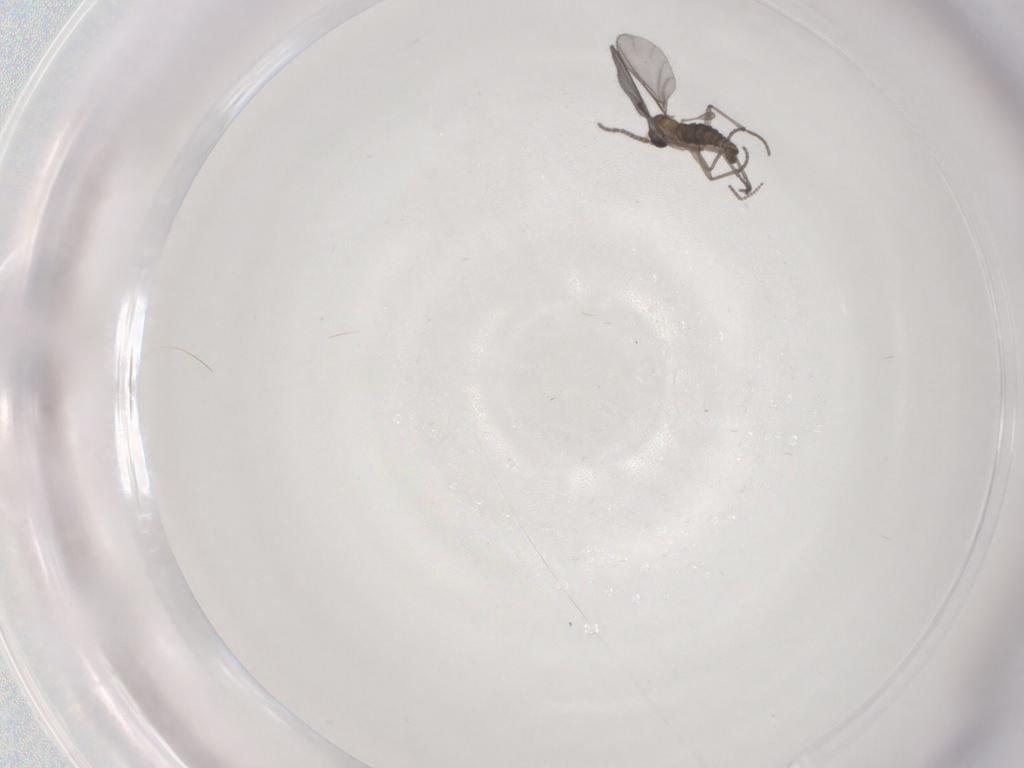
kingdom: Animalia
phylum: Arthropoda
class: Insecta
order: Diptera
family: Sciaridae
